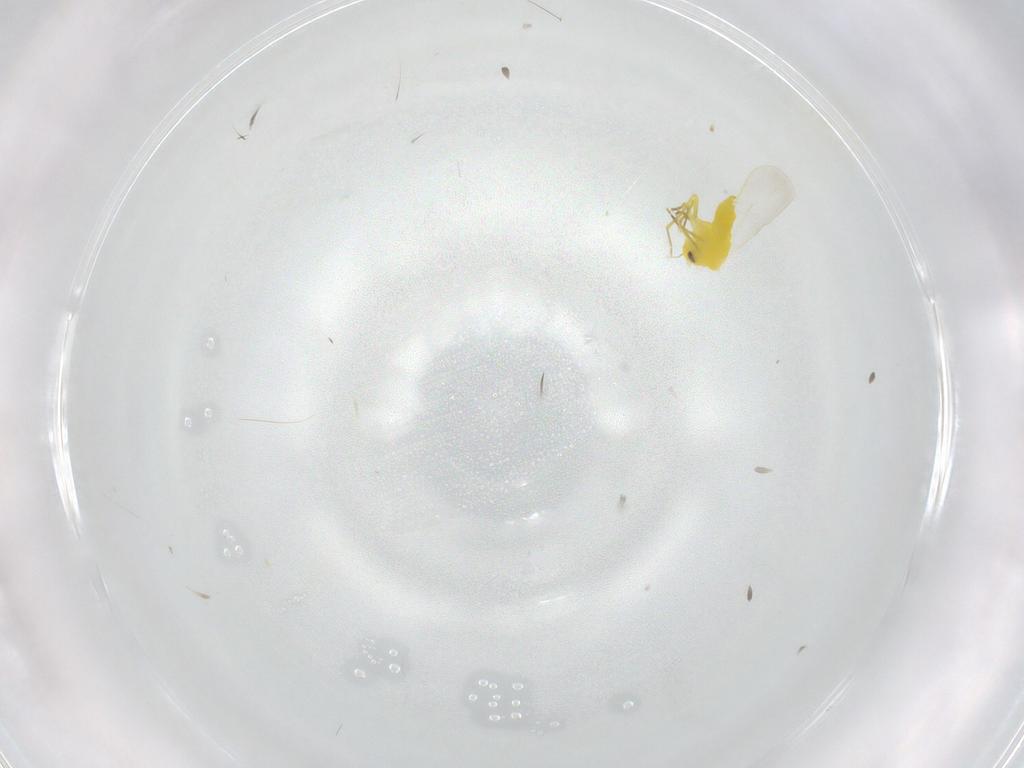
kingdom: Animalia
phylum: Arthropoda
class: Insecta
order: Hemiptera
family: Aleyrodidae
